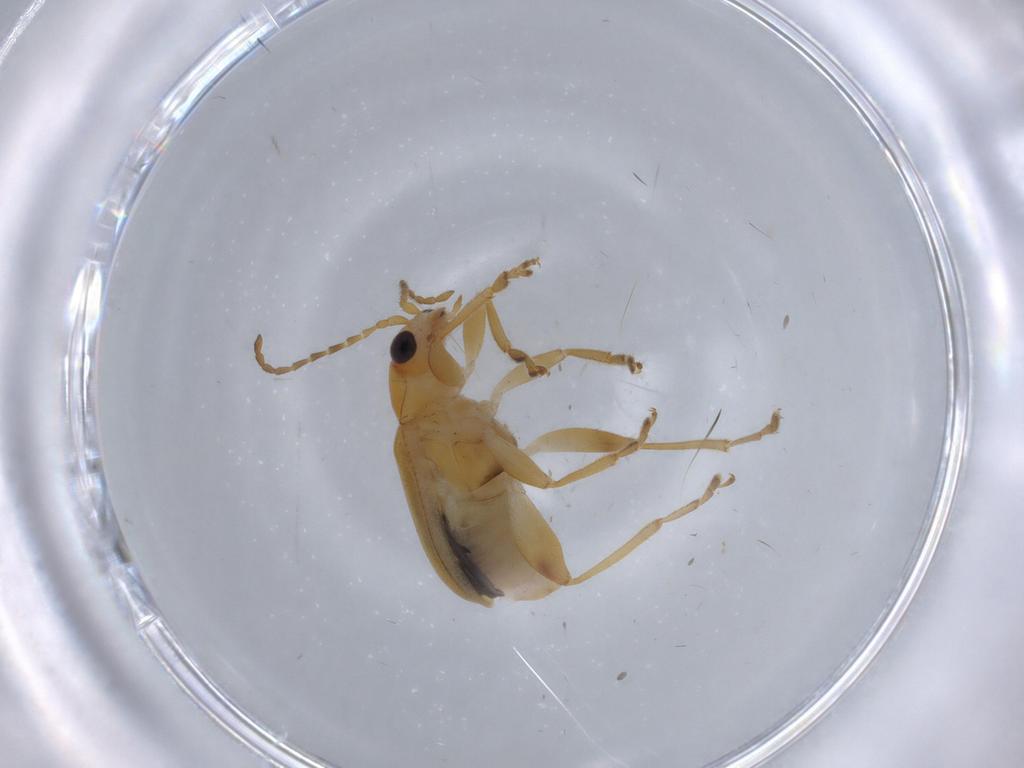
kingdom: Animalia
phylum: Arthropoda
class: Insecta
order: Coleoptera
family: Chrysomelidae
